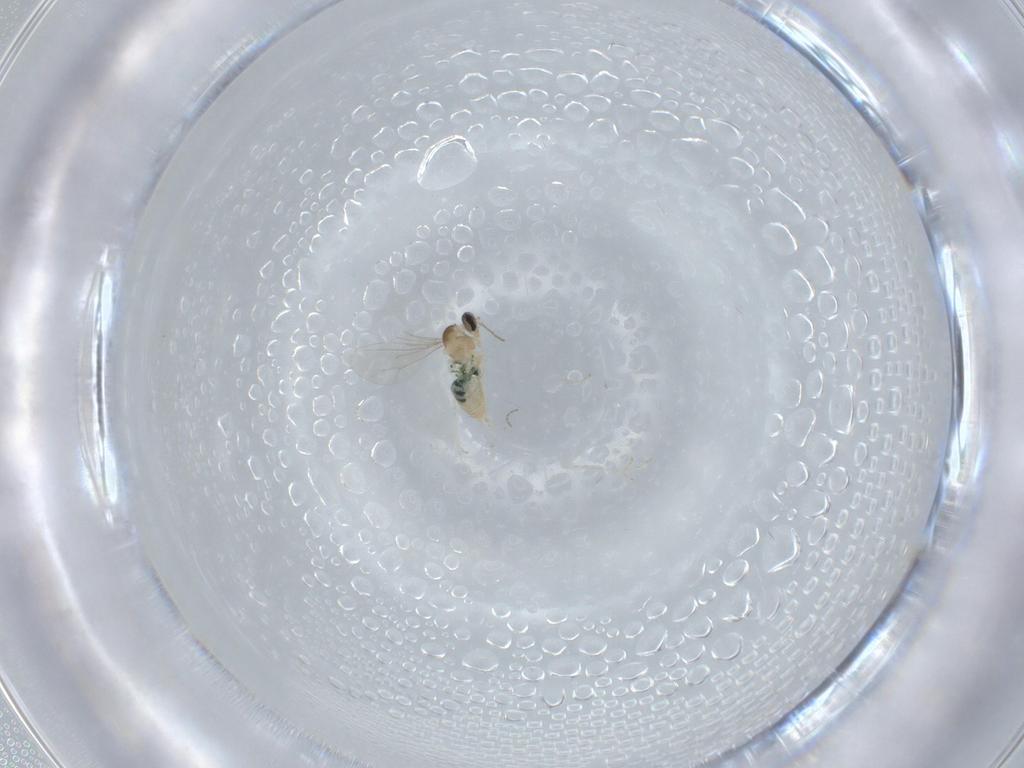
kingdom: Animalia
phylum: Arthropoda
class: Insecta
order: Diptera
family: Cecidomyiidae
